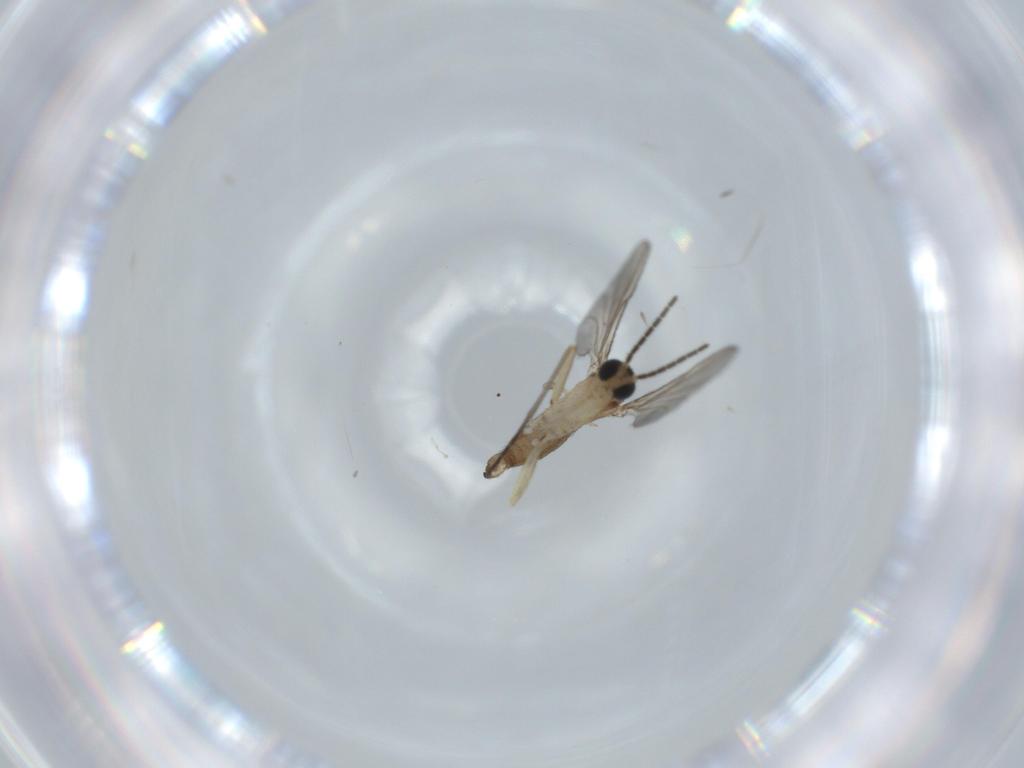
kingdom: Animalia
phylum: Arthropoda
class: Insecta
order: Diptera
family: Sciaridae
